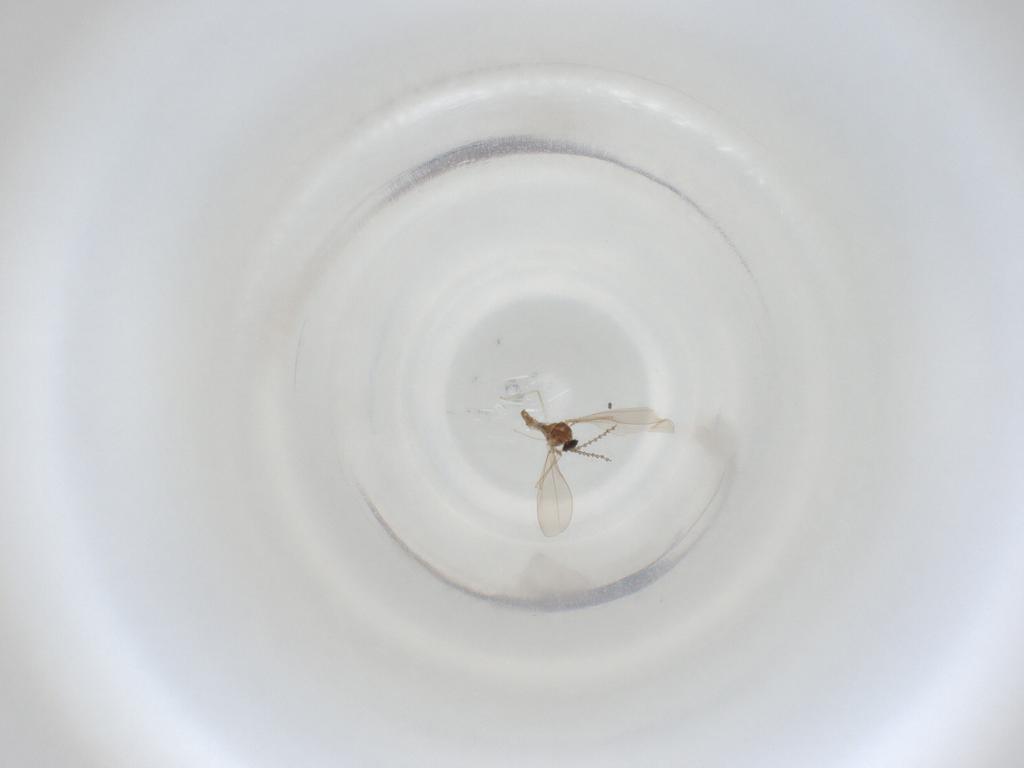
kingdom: Animalia
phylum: Arthropoda
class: Insecta
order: Diptera
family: Cecidomyiidae
